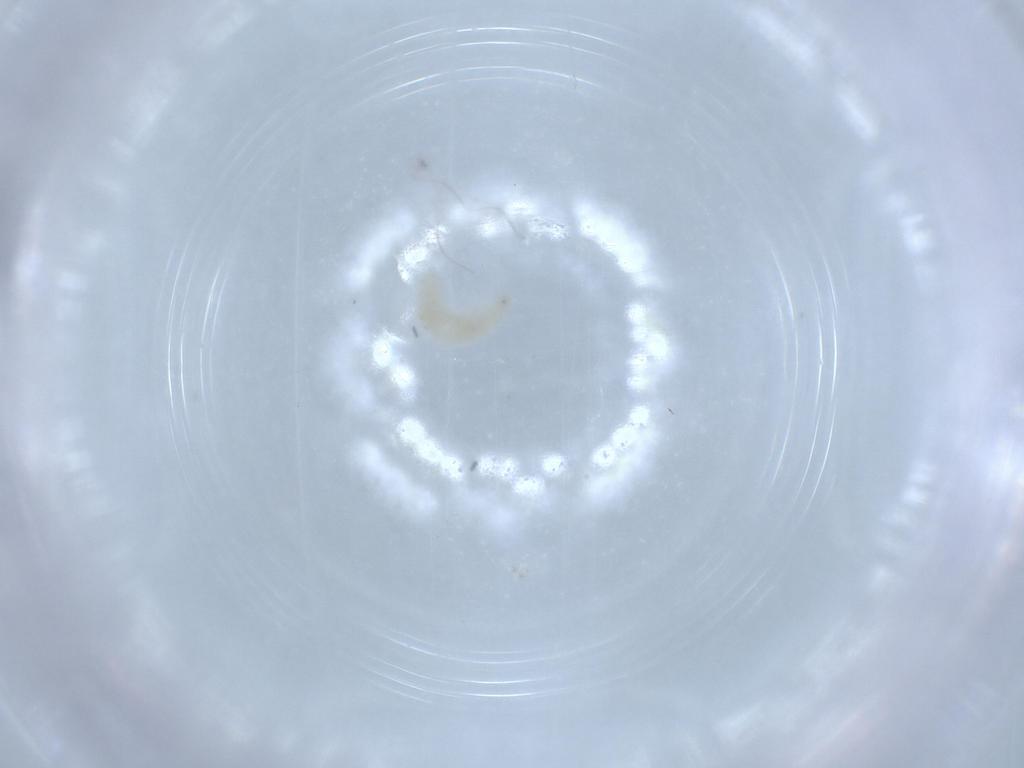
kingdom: Animalia
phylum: Arthropoda
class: Insecta
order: Coleoptera
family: Cantharidae
